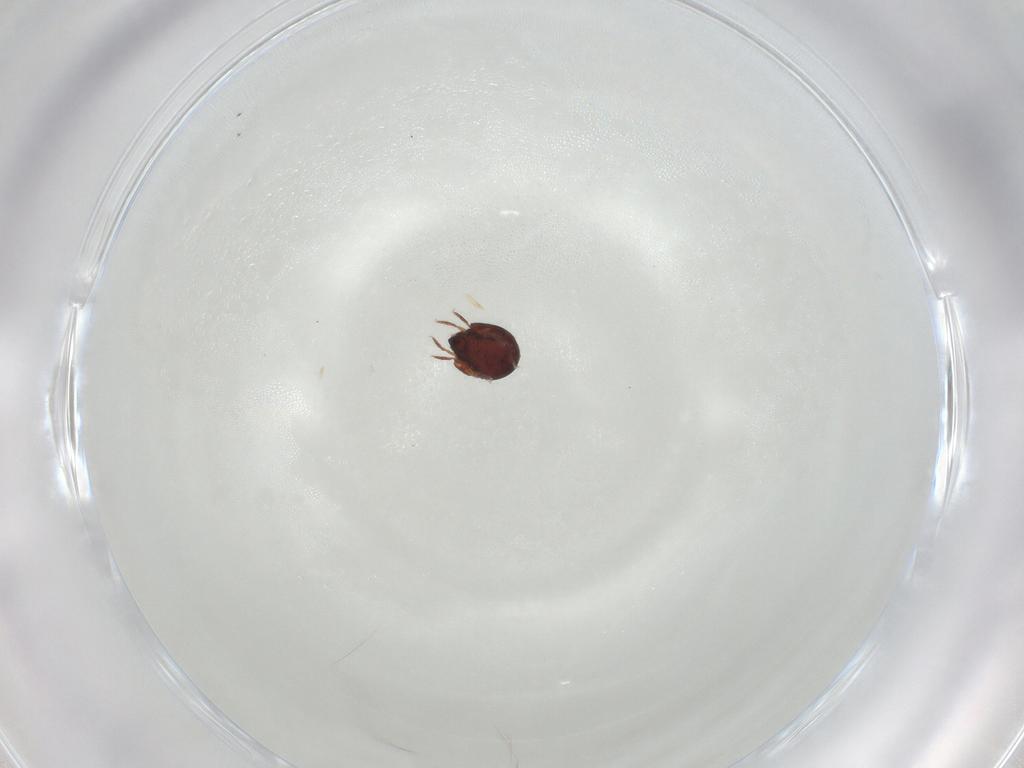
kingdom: Animalia
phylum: Arthropoda
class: Arachnida
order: Sarcoptiformes
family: Humerobatidae
